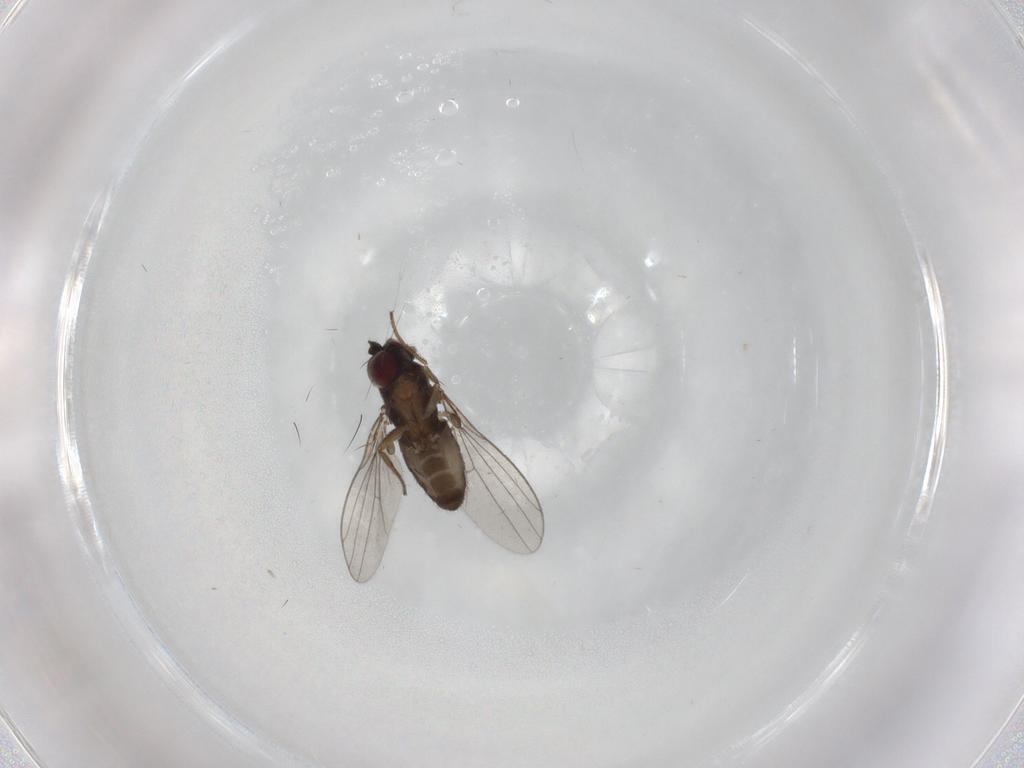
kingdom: Animalia
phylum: Arthropoda
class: Insecta
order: Diptera
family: Dolichopodidae
